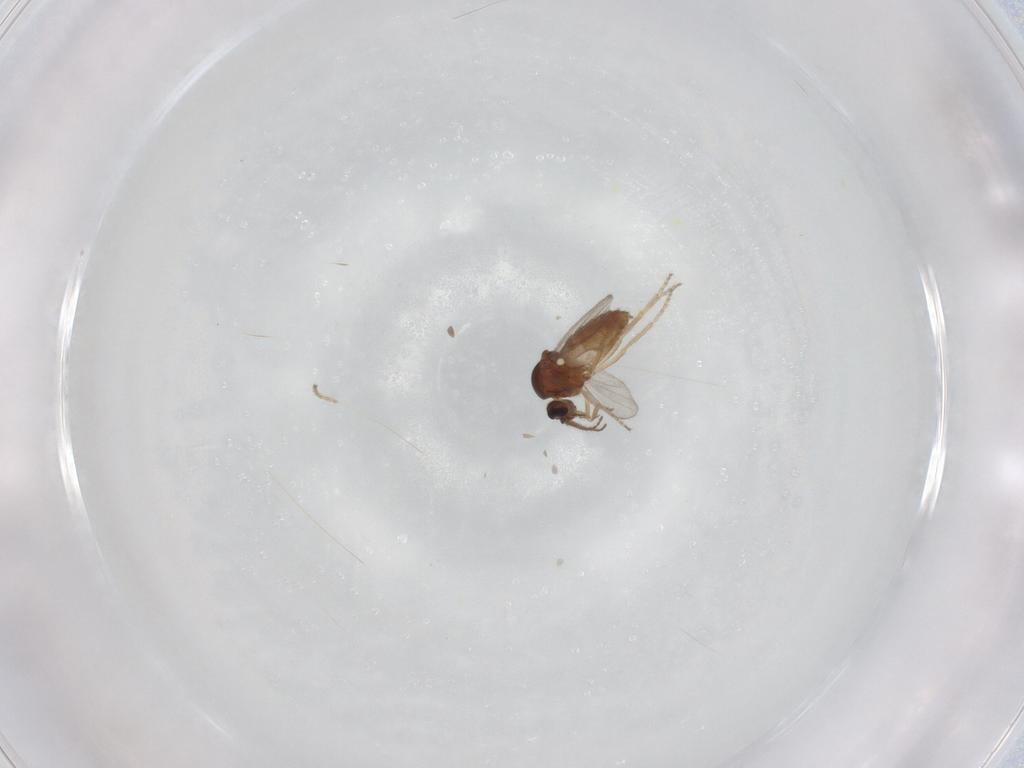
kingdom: Animalia
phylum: Arthropoda
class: Insecta
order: Diptera
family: Ceratopogonidae
